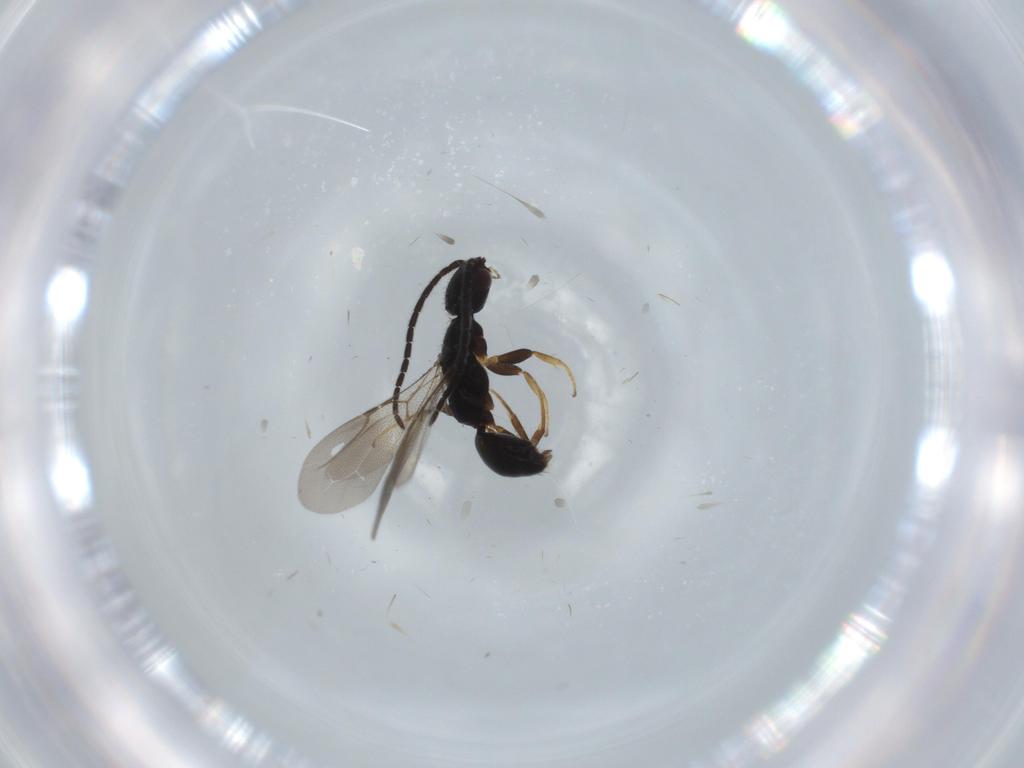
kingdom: Animalia
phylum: Arthropoda
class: Insecta
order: Hymenoptera
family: Bethylidae
